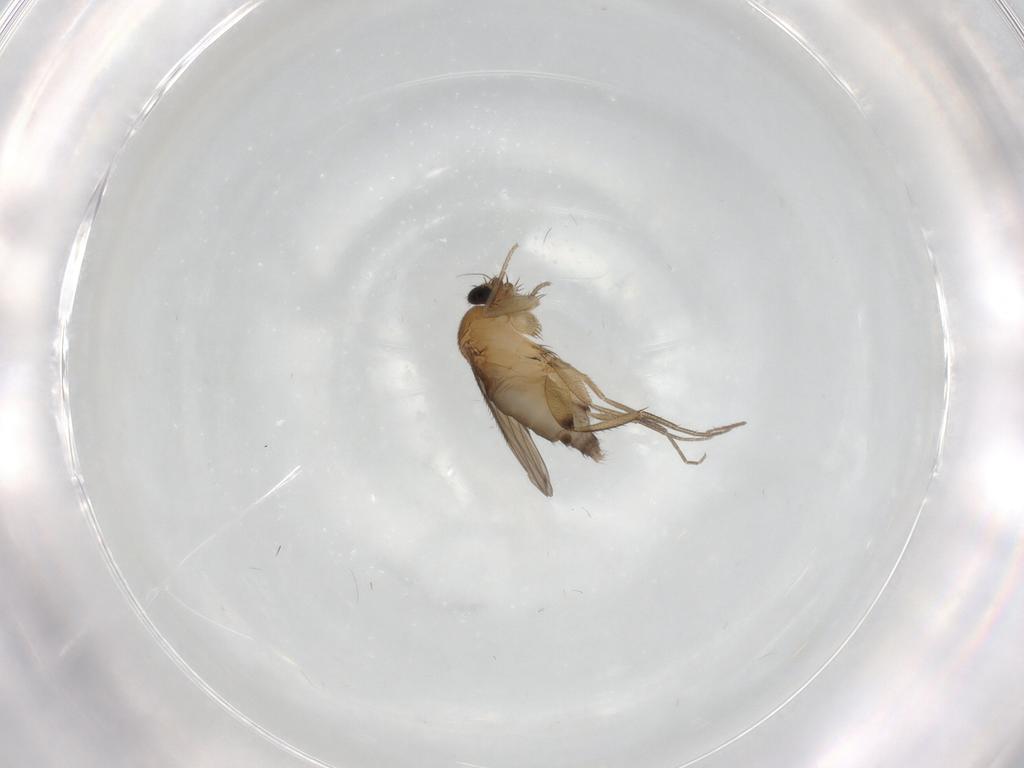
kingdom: Animalia
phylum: Arthropoda
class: Insecta
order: Diptera
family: Phoridae
